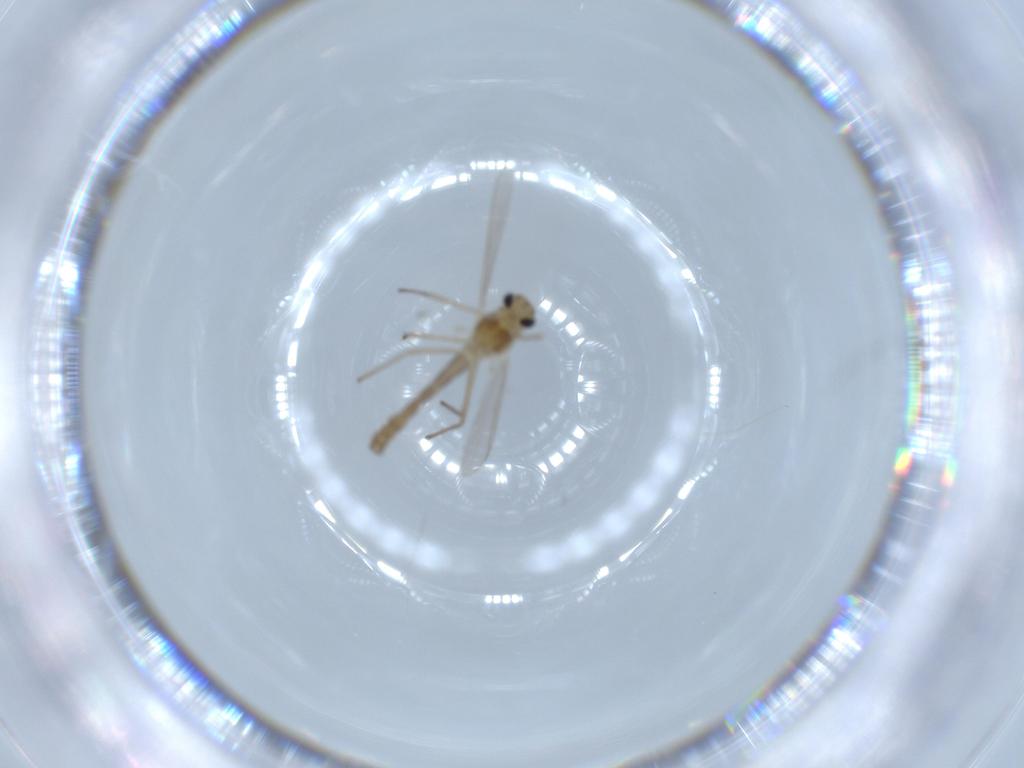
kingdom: Animalia
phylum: Arthropoda
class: Insecta
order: Diptera
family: Chironomidae
